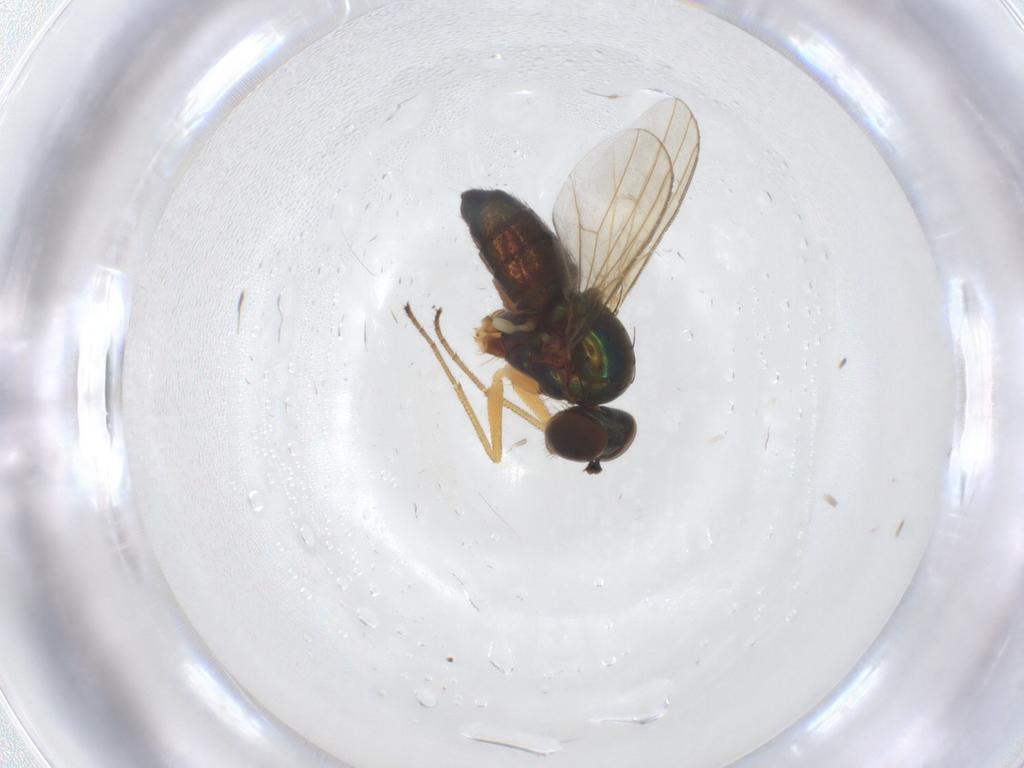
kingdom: Animalia
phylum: Arthropoda
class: Insecta
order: Diptera
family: Dolichopodidae
